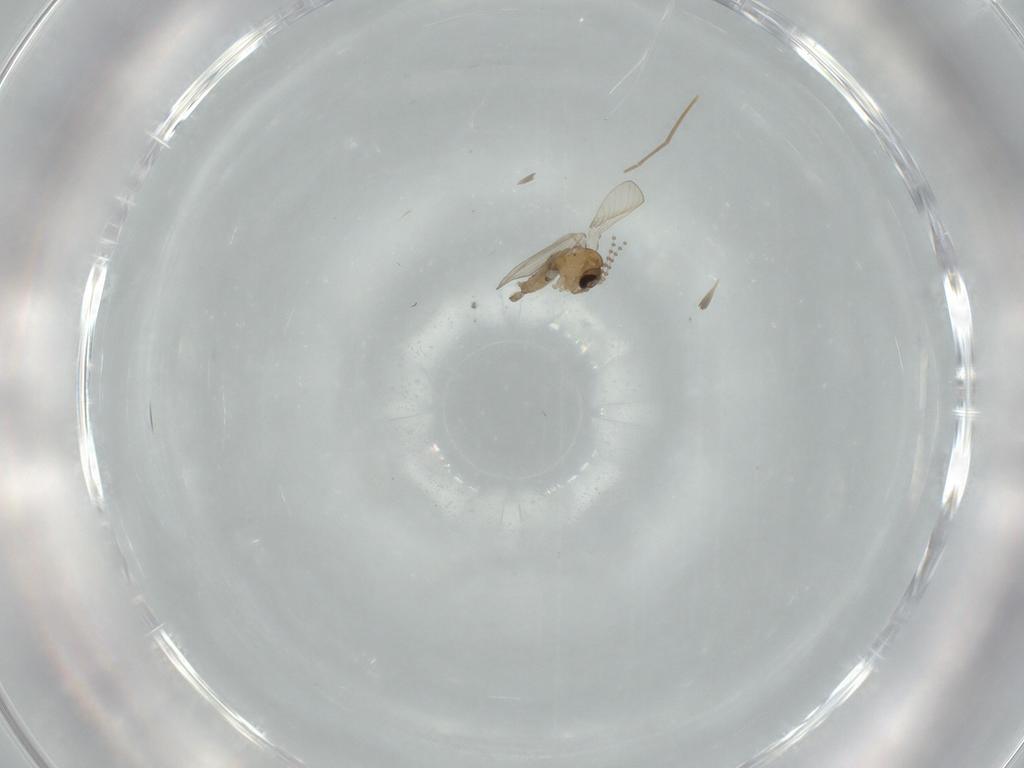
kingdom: Animalia
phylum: Arthropoda
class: Insecta
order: Diptera
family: Psychodidae
